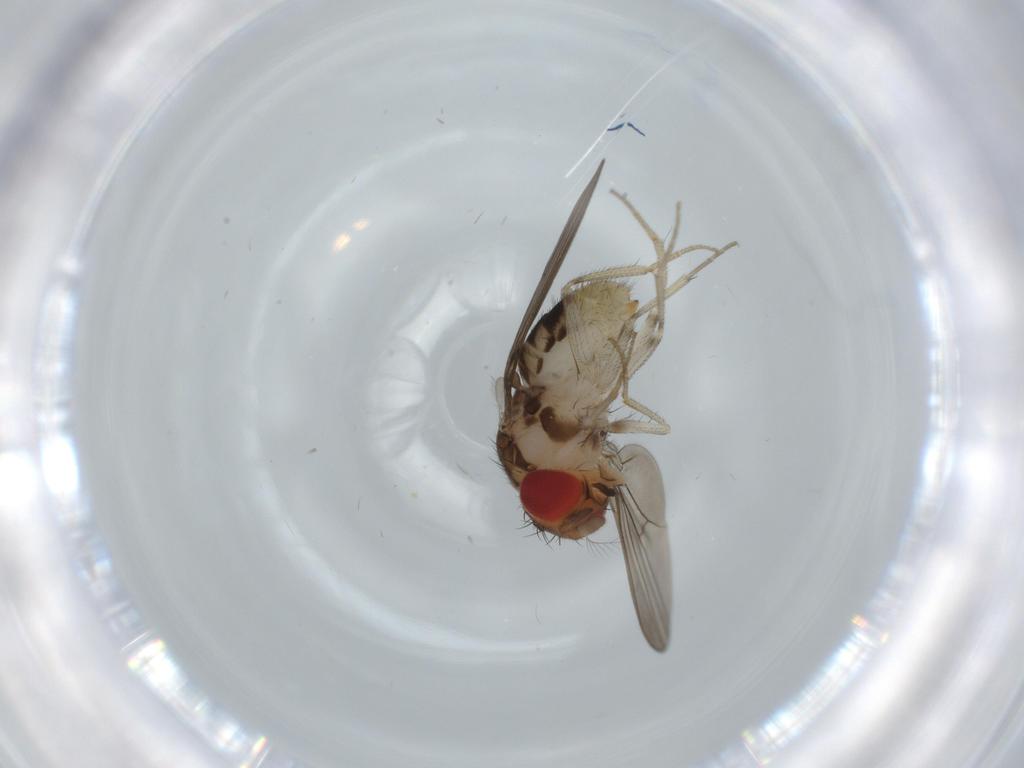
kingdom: Animalia
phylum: Arthropoda
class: Insecta
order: Diptera
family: Drosophilidae
